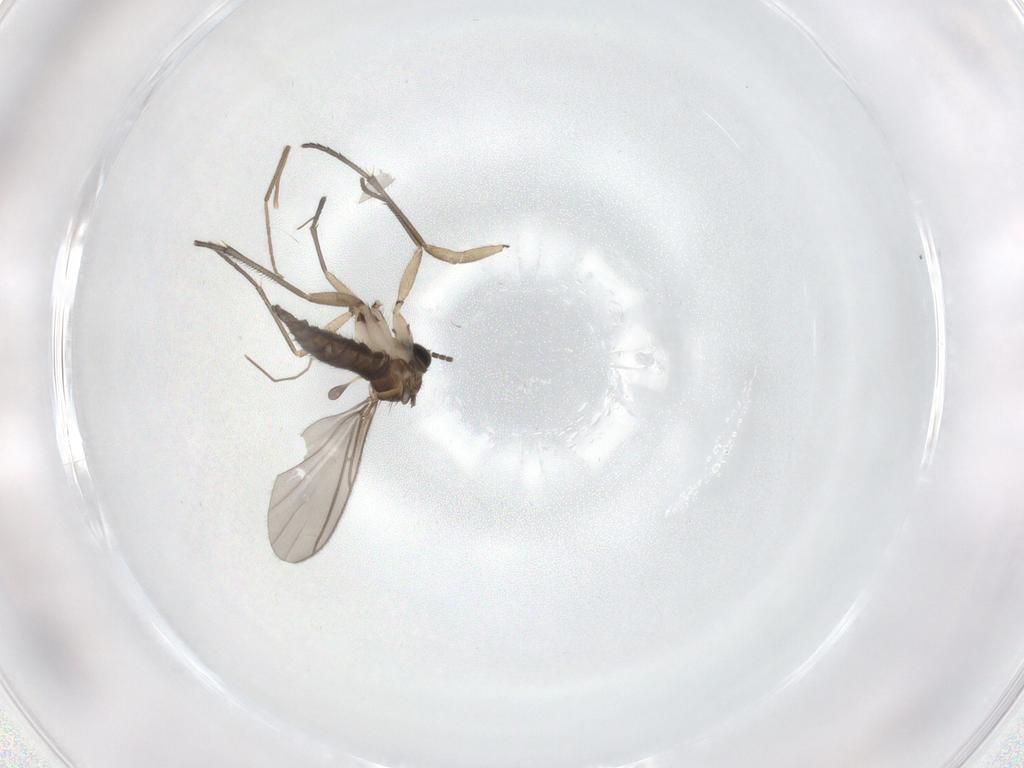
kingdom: Animalia
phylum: Arthropoda
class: Insecta
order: Diptera
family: Chironomidae
